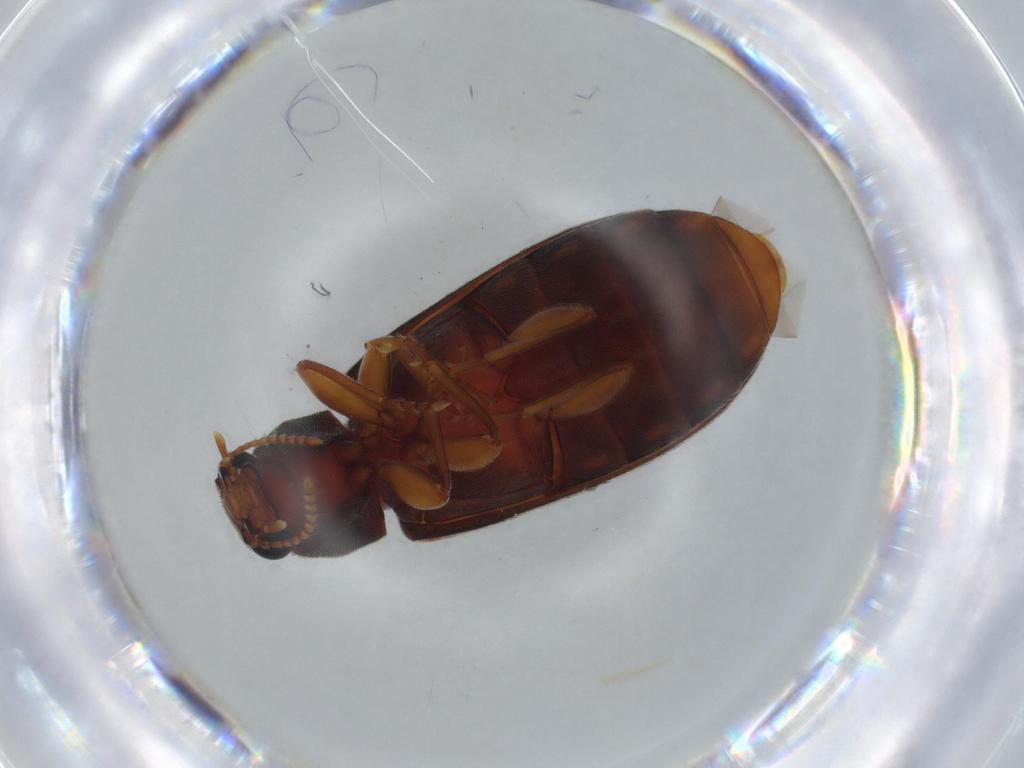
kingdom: Animalia
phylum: Arthropoda
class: Insecta
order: Coleoptera
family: Mycteridae
